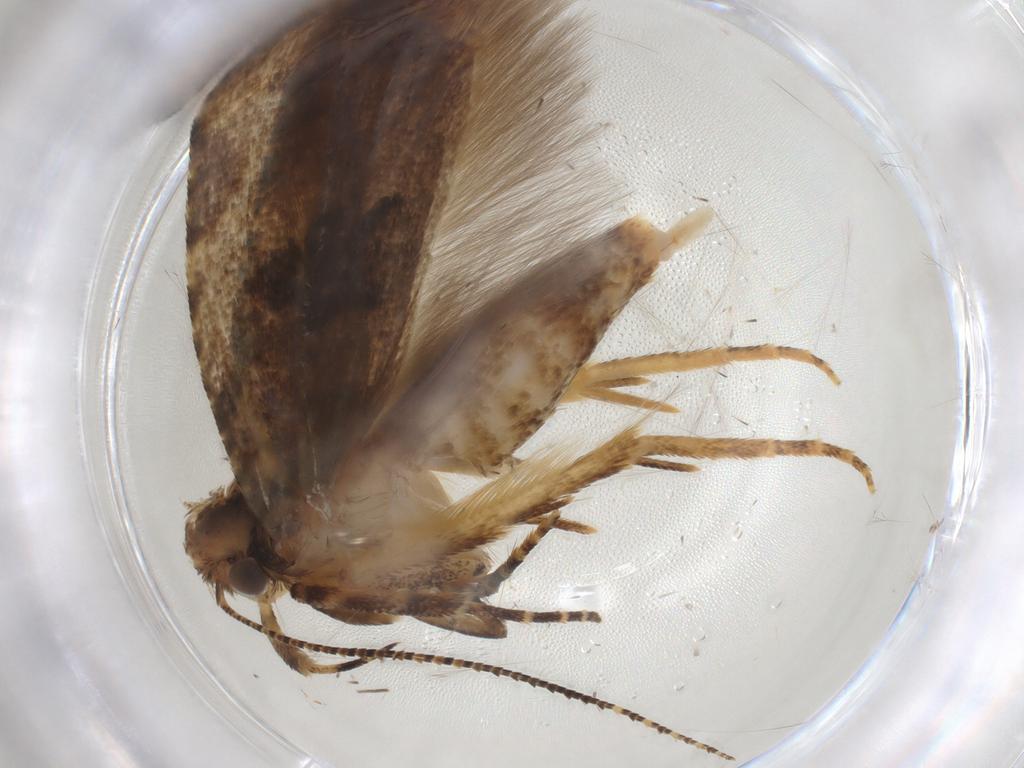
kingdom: Animalia
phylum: Arthropoda
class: Insecta
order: Lepidoptera
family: Gelechiidae
